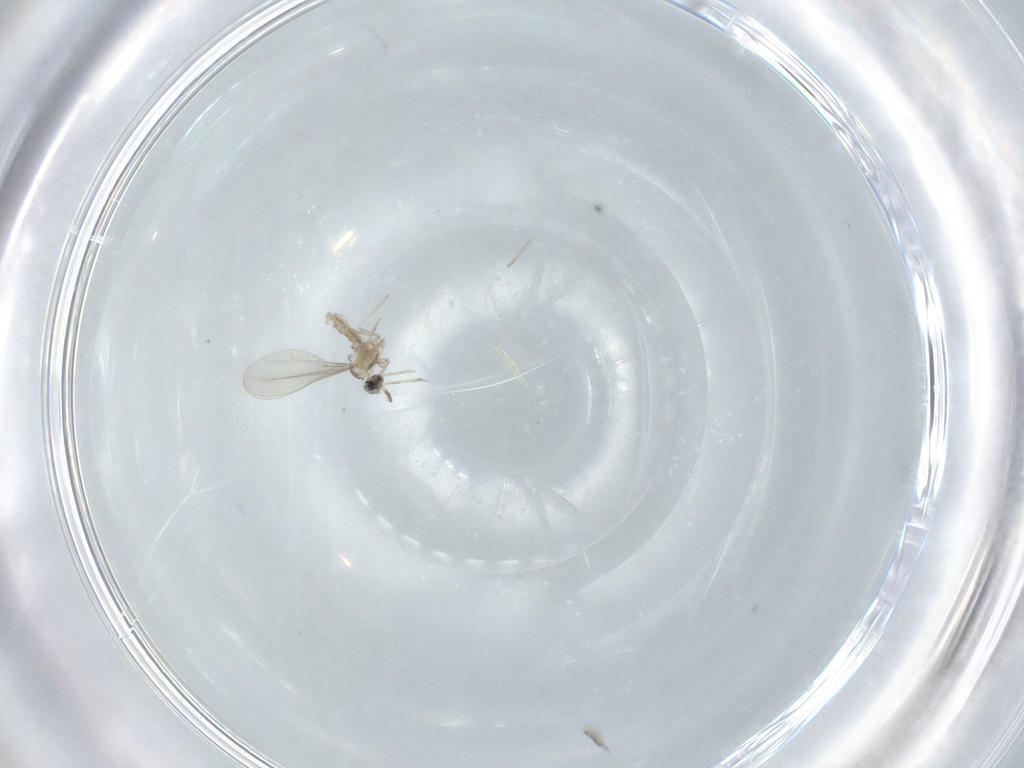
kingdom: Animalia
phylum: Arthropoda
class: Insecta
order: Diptera
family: Cecidomyiidae
